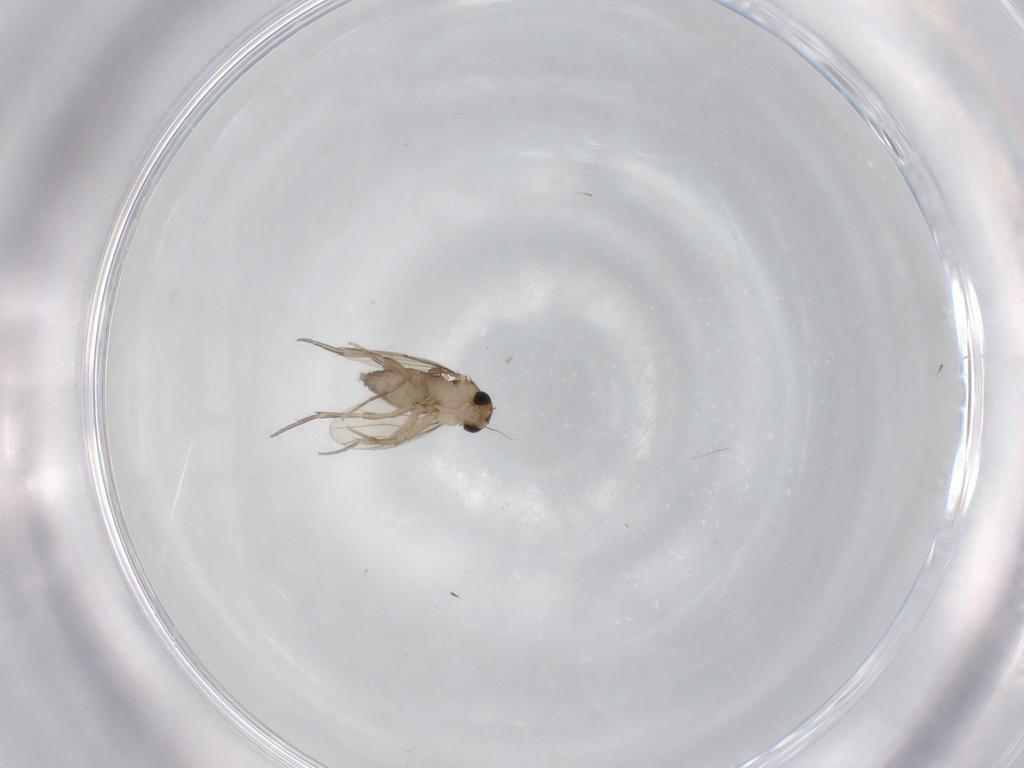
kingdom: Animalia
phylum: Arthropoda
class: Insecta
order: Diptera
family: Phoridae
